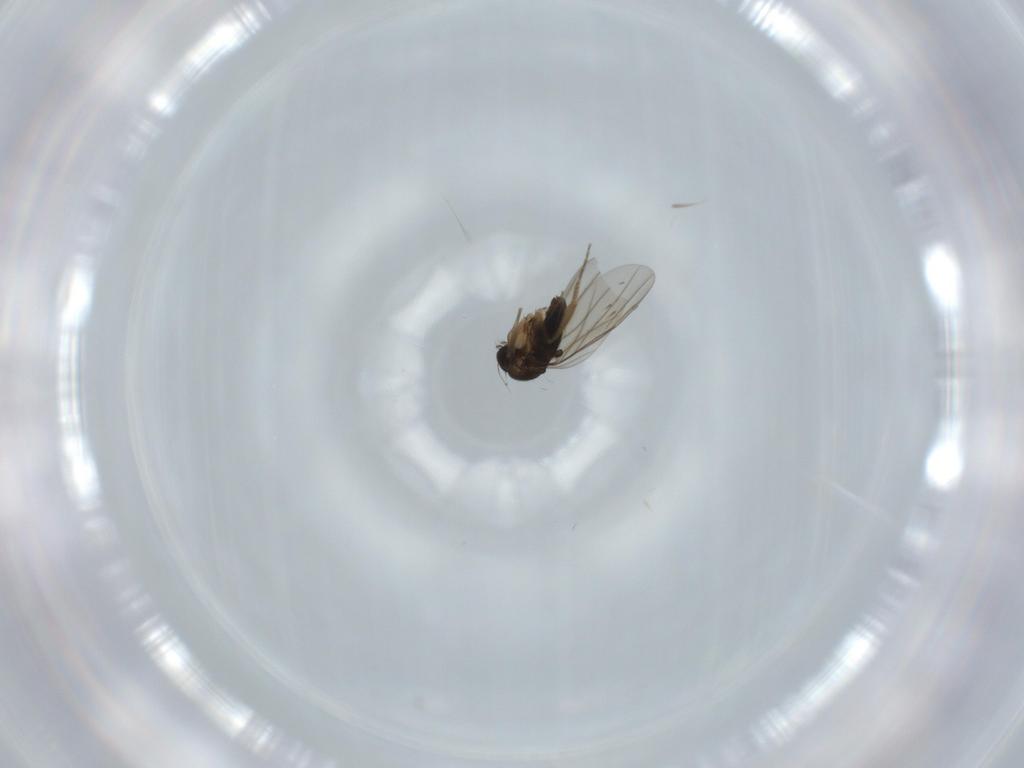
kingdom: Animalia
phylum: Arthropoda
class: Insecta
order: Diptera
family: Phoridae
